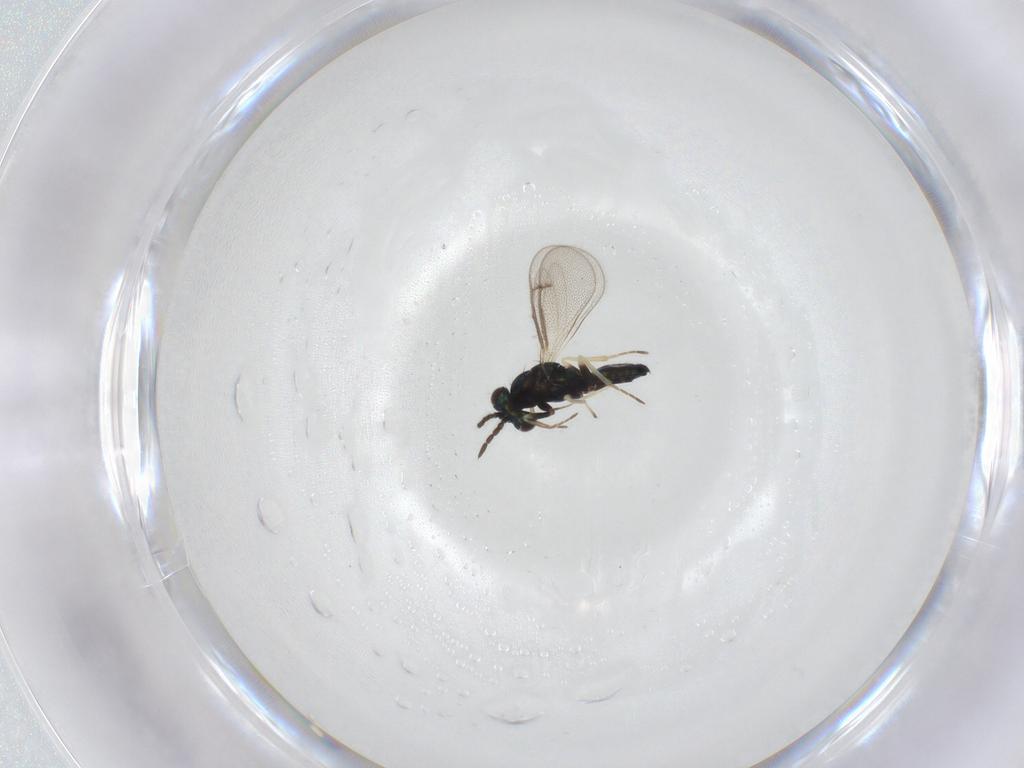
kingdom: Animalia
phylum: Arthropoda
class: Insecta
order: Hymenoptera
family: Eulophidae
